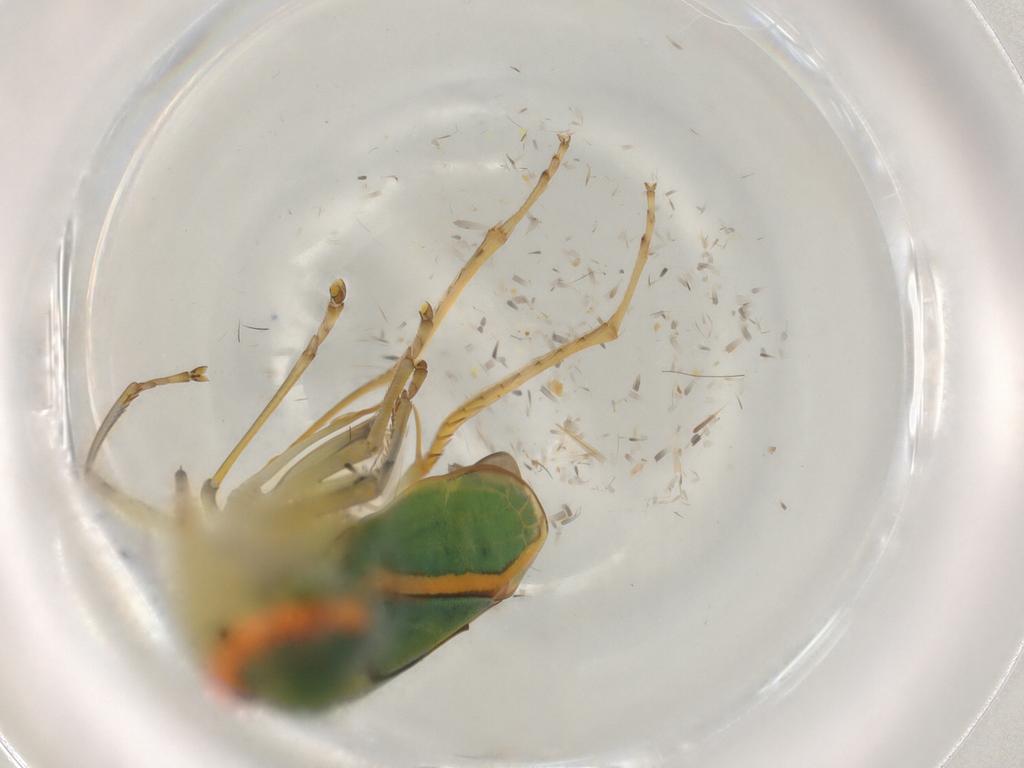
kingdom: Animalia
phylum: Arthropoda
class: Insecta
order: Hemiptera
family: Cicadellidae
